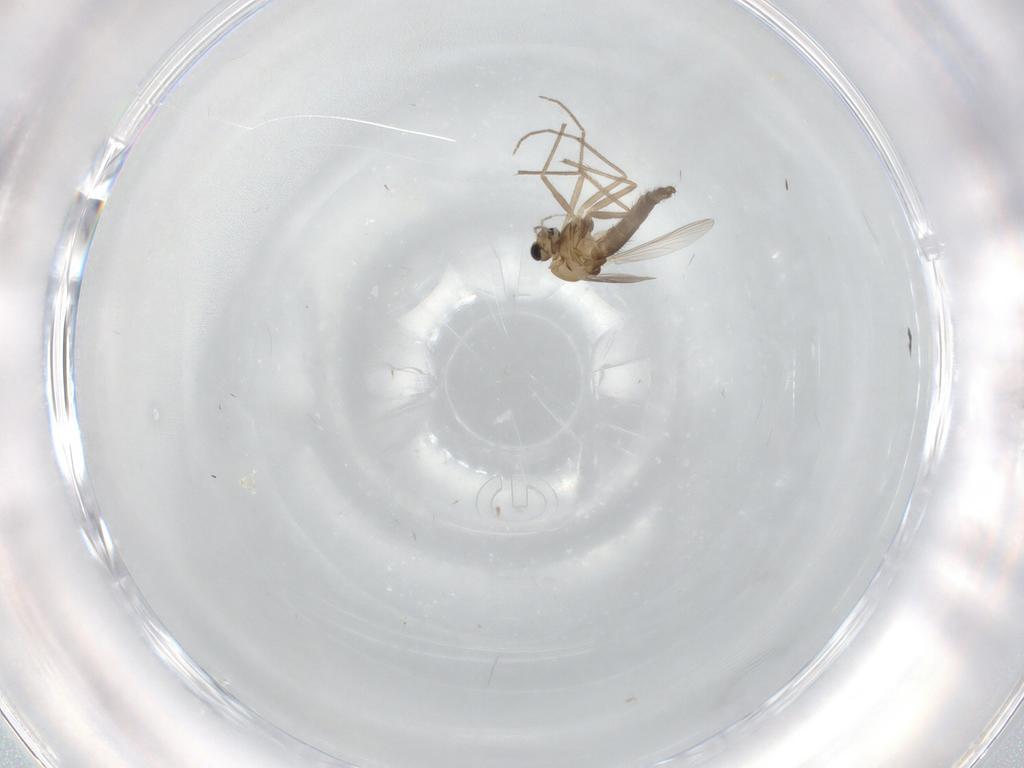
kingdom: Animalia
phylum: Arthropoda
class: Insecta
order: Diptera
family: Chironomidae
